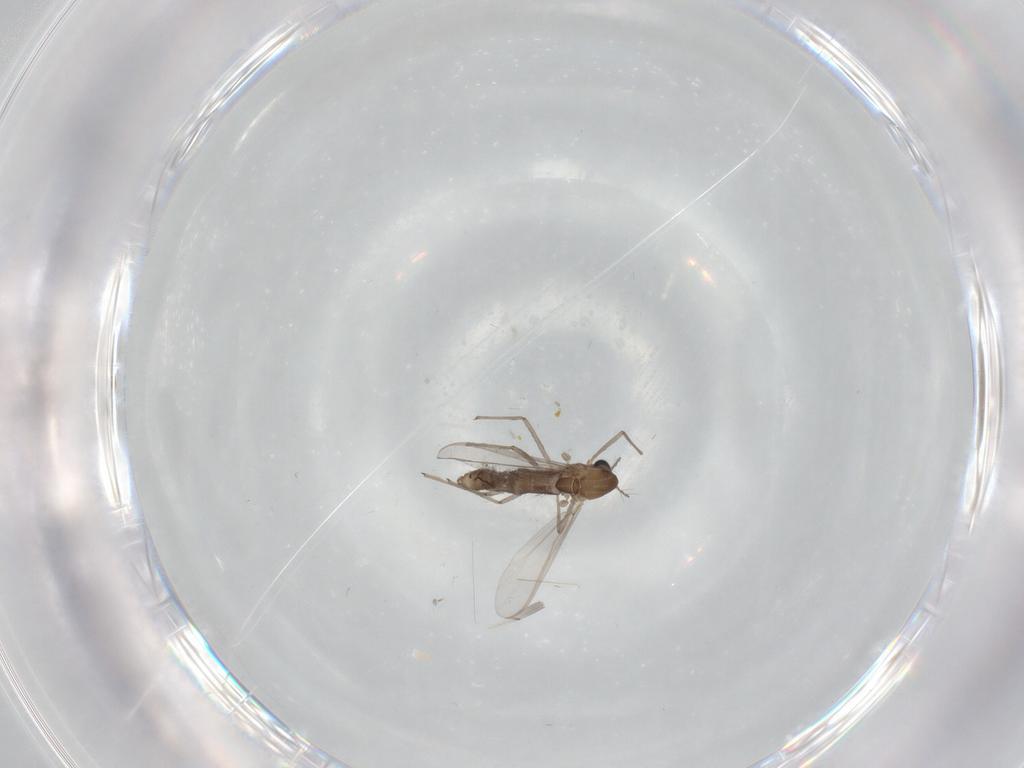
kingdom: Animalia
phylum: Arthropoda
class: Insecta
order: Diptera
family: Chironomidae
